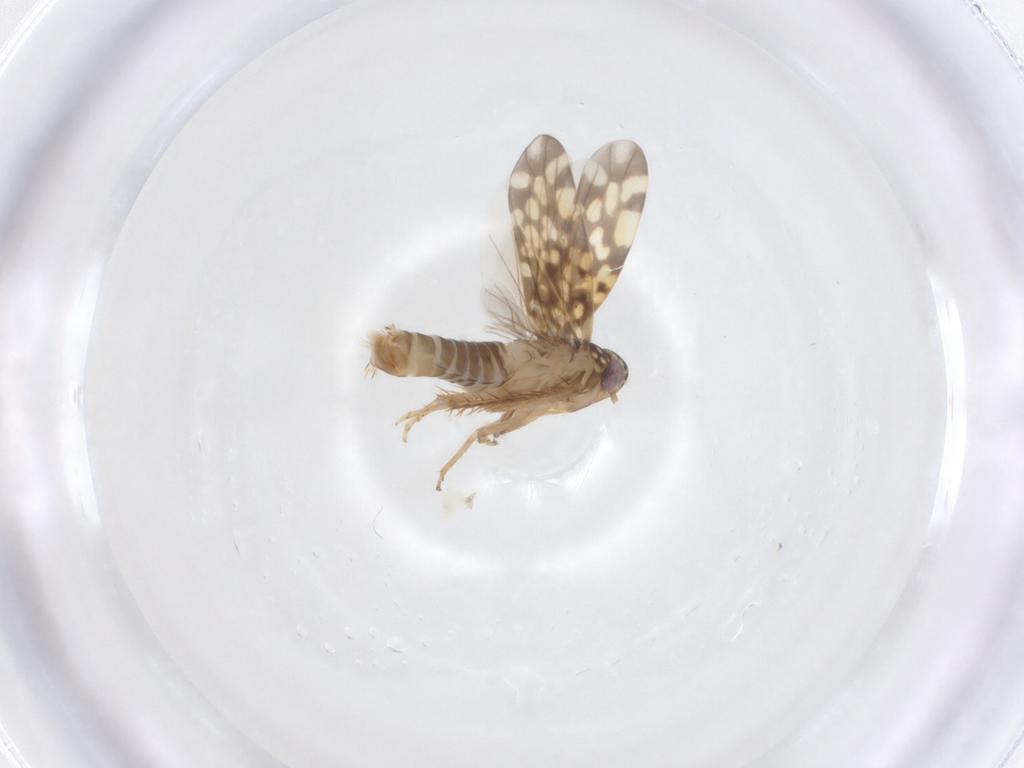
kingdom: Animalia
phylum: Arthropoda
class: Insecta
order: Hemiptera
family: Cicadellidae
